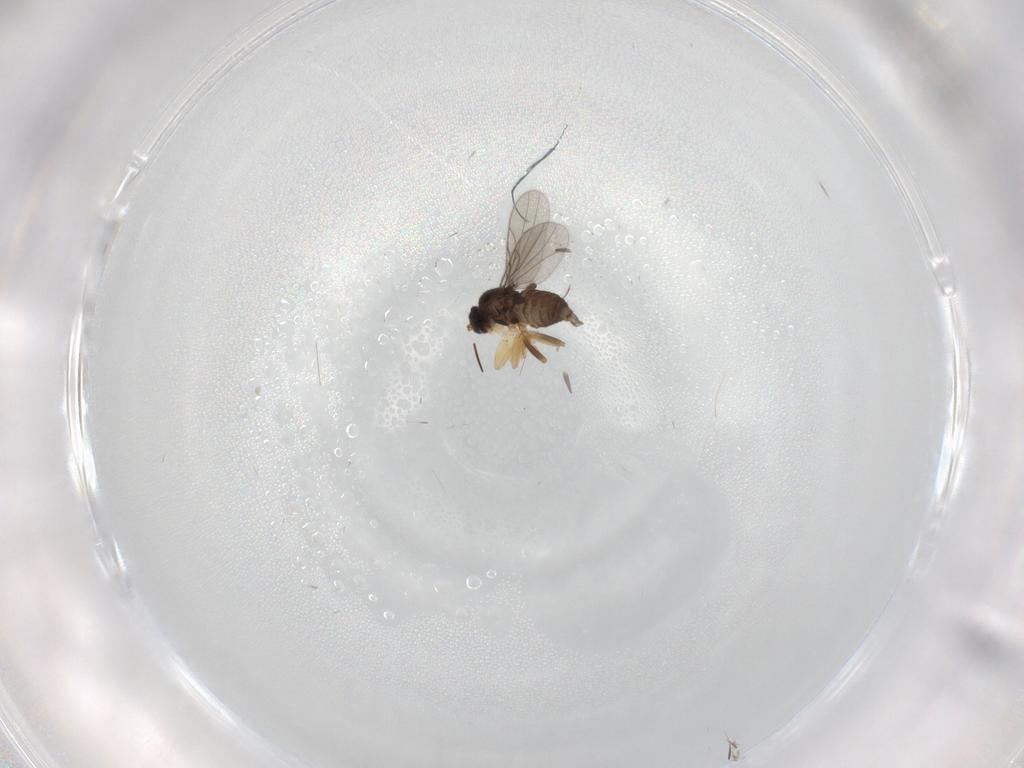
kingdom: Animalia
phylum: Arthropoda
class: Insecta
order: Diptera
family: Hybotidae
